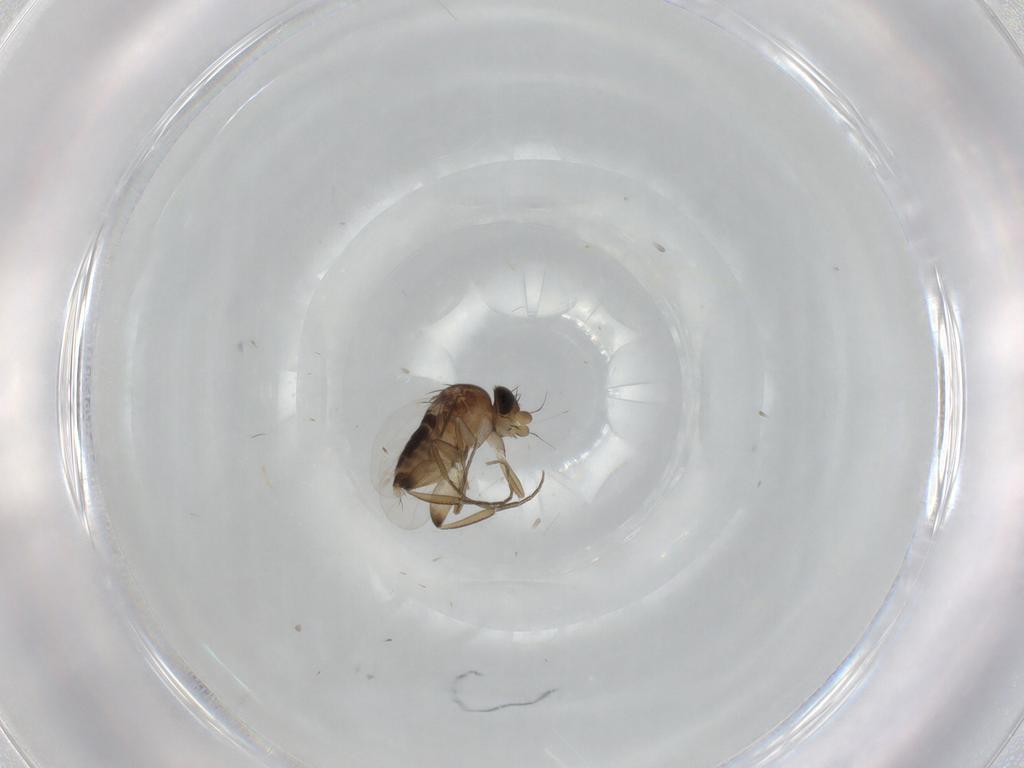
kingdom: Animalia
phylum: Arthropoda
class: Insecta
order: Diptera
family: Phoridae
